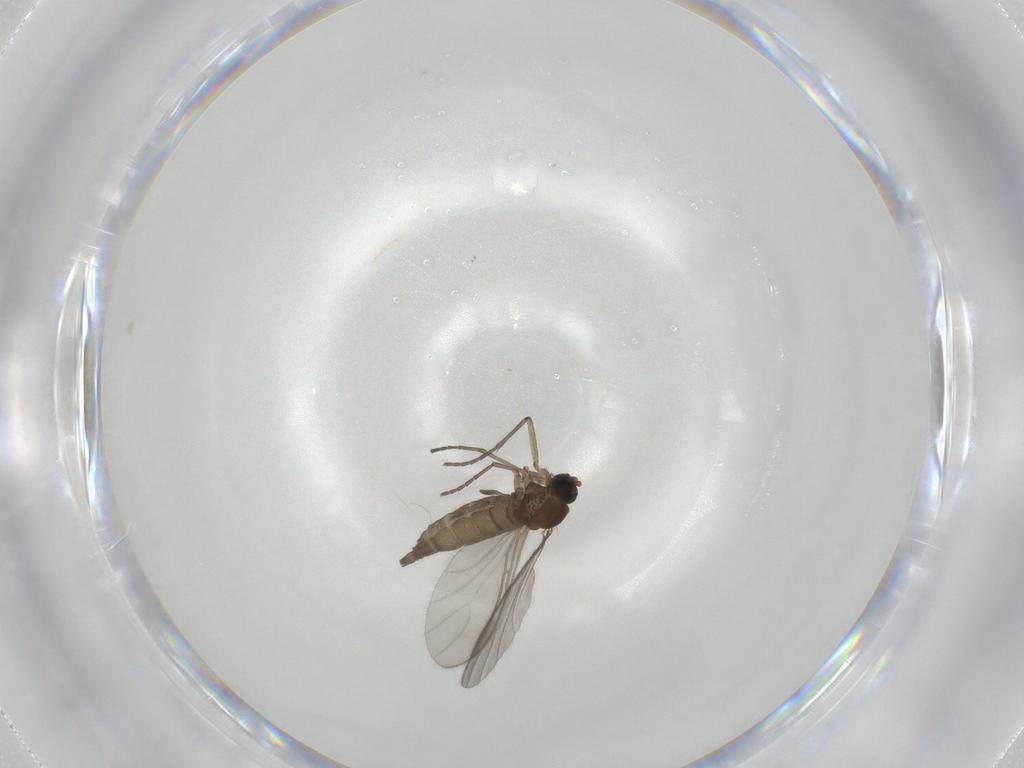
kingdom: Animalia
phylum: Arthropoda
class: Insecta
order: Diptera
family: Sciaridae
